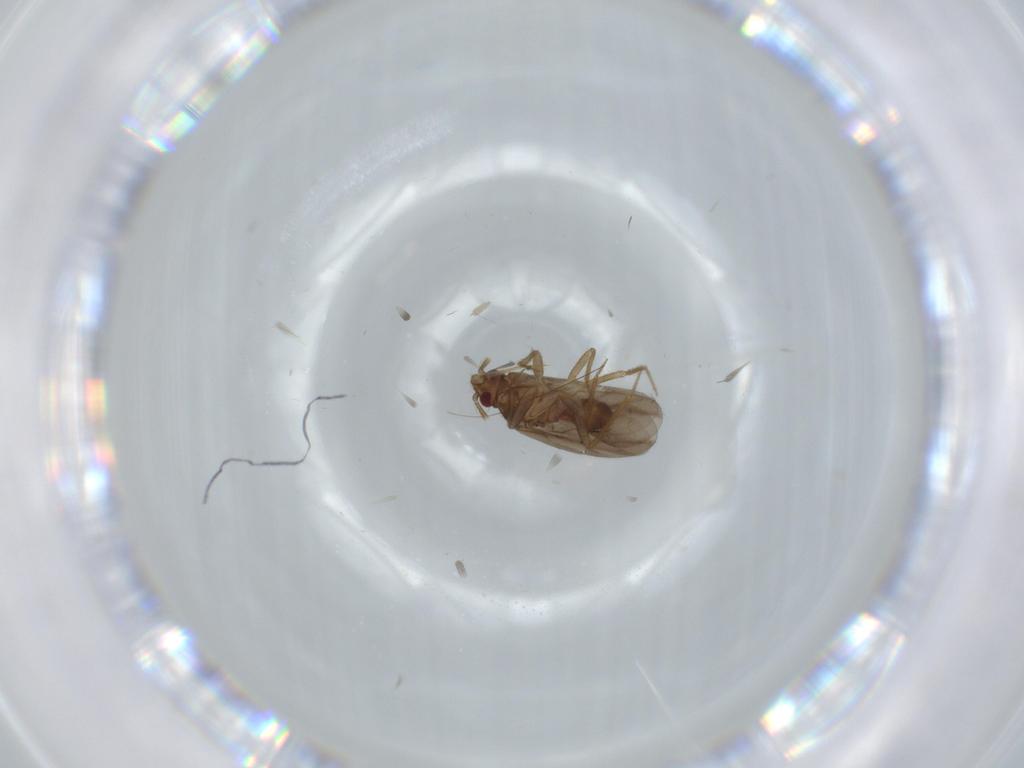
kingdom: Animalia
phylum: Arthropoda
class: Insecta
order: Hemiptera
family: Ceratocombidae
